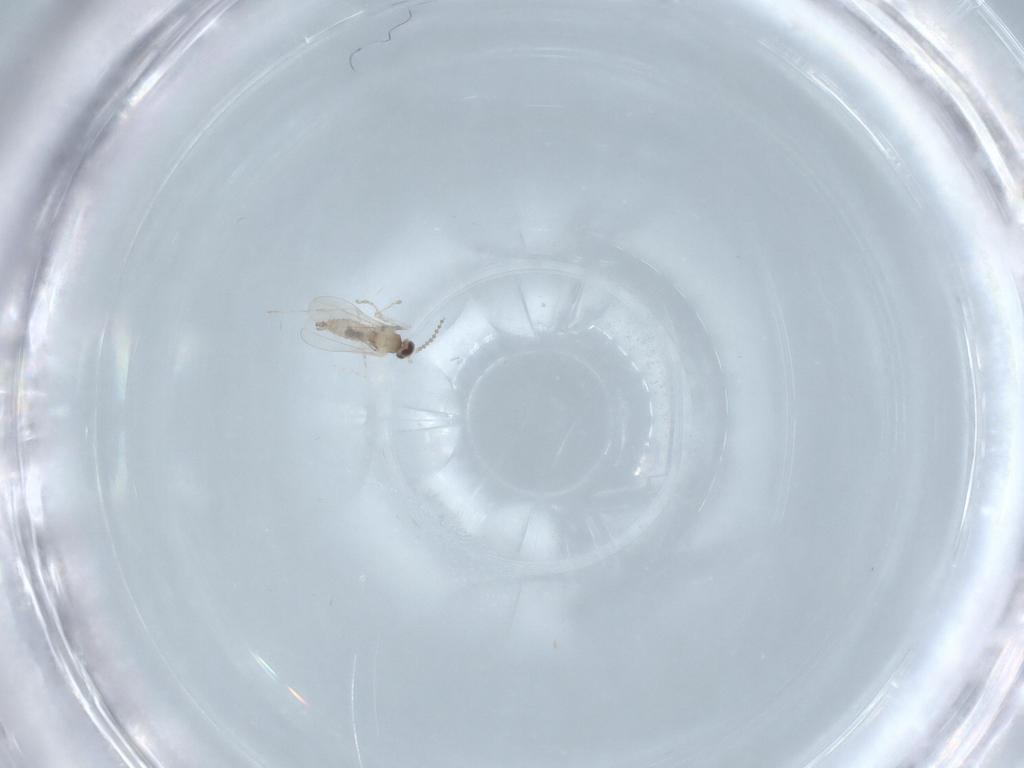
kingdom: Animalia
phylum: Arthropoda
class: Insecta
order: Diptera
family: Cecidomyiidae
